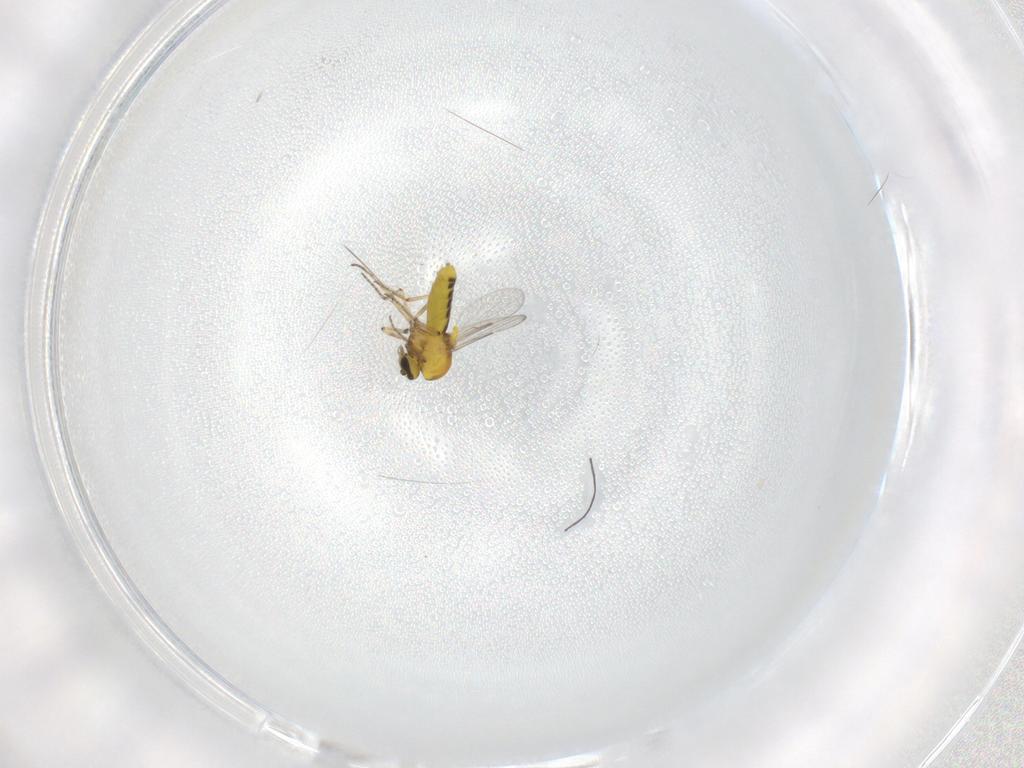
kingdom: Animalia
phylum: Arthropoda
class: Insecta
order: Diptera
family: Ceratopogonidae
